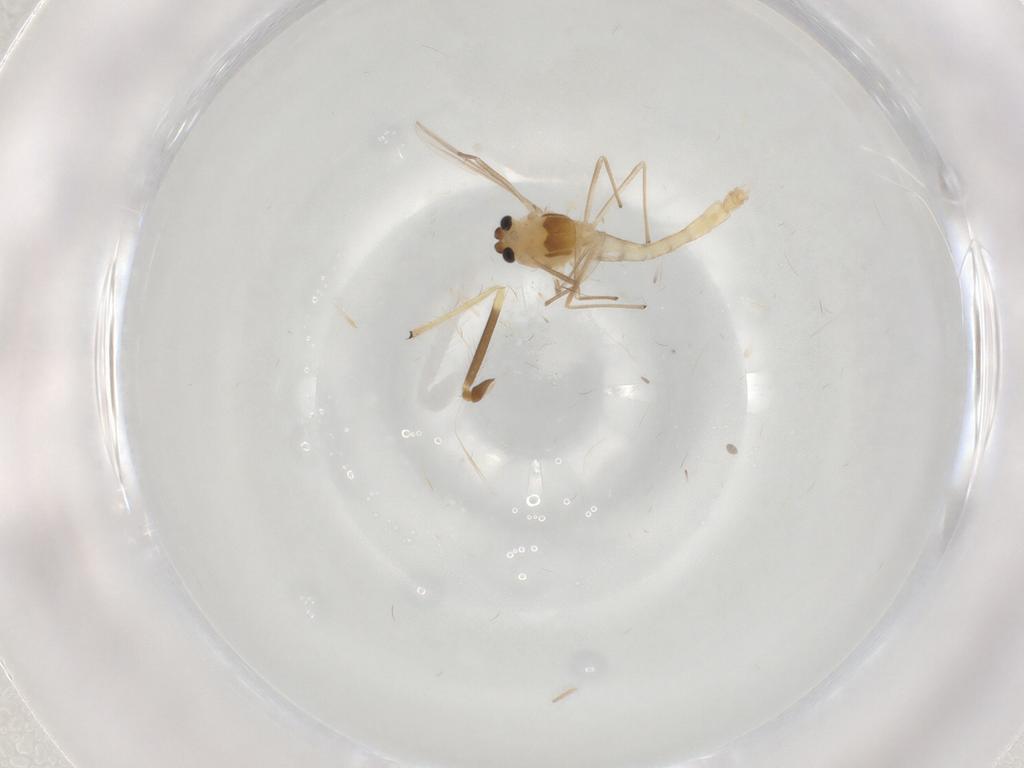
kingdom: Animalia
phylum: Arthropoda
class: Insecta
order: Diptera
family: Chironomidae
